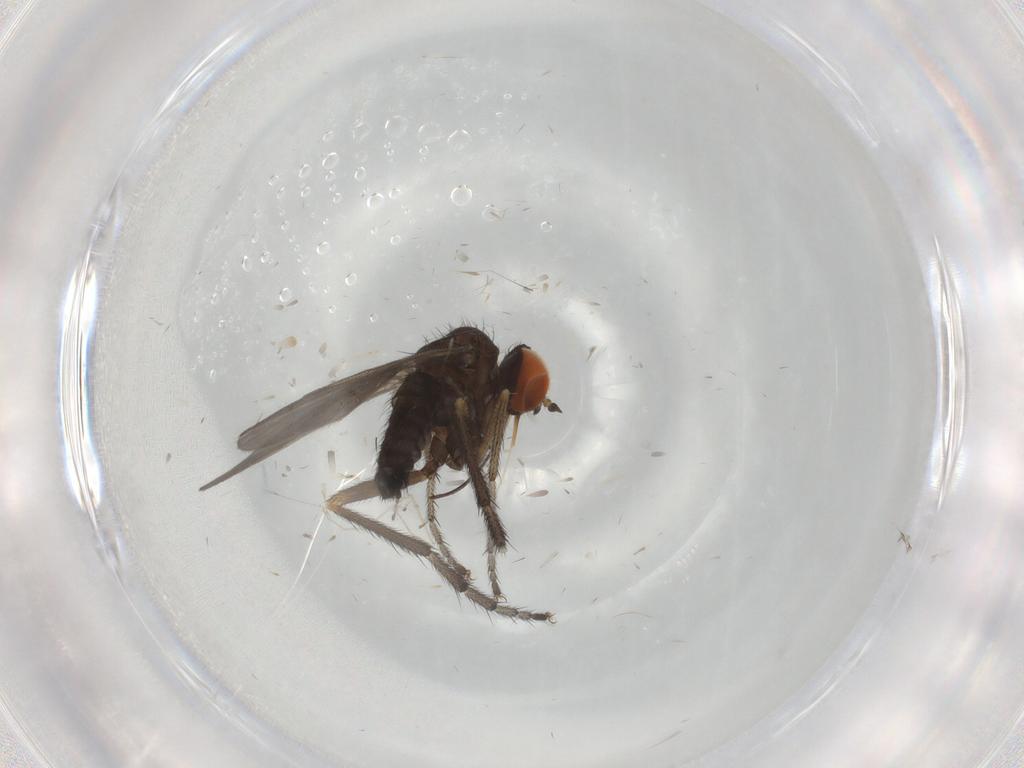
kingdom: Animalia
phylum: Arthropoda
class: Insecta
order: Diptera
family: Empididae
